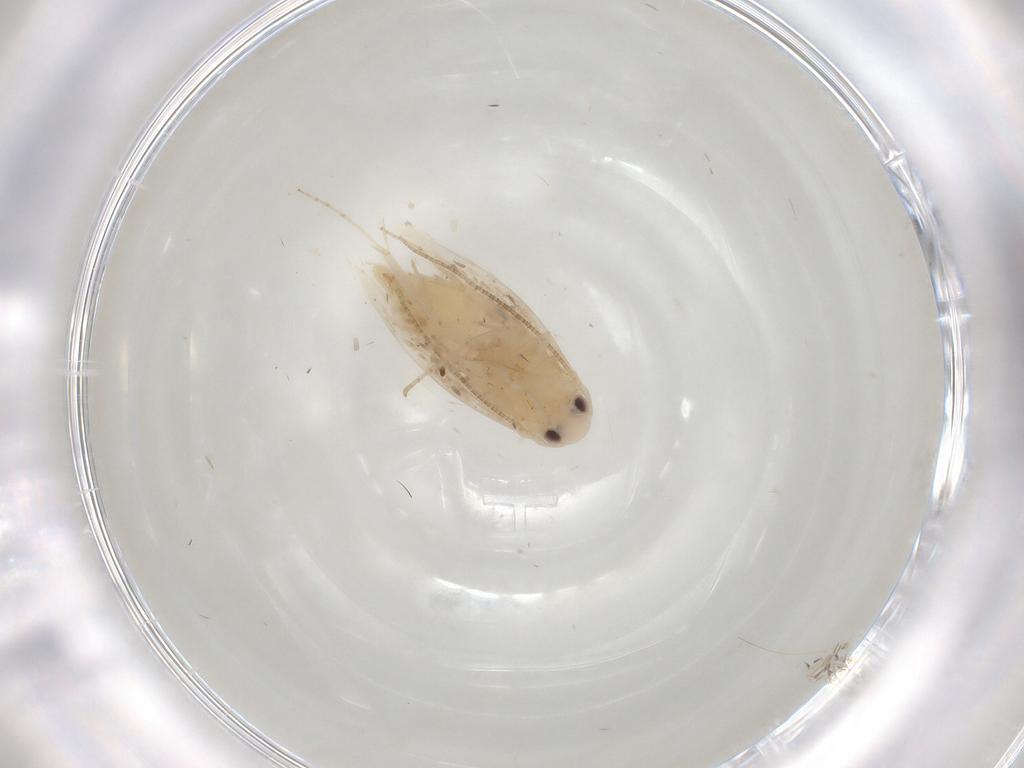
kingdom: Animalia
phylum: Arthropoda
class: Insecta
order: Lepidoptera
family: Gracillariidae
